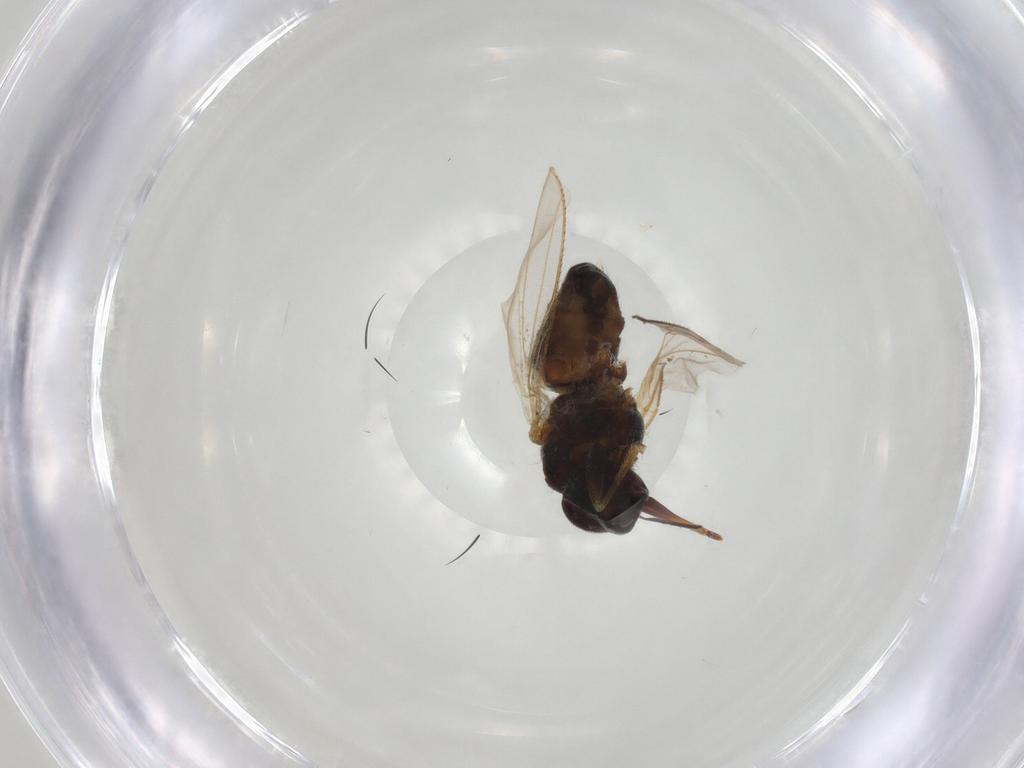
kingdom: Animalia
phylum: Arthropoda
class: Insecta
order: Diptera
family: Muscidae
